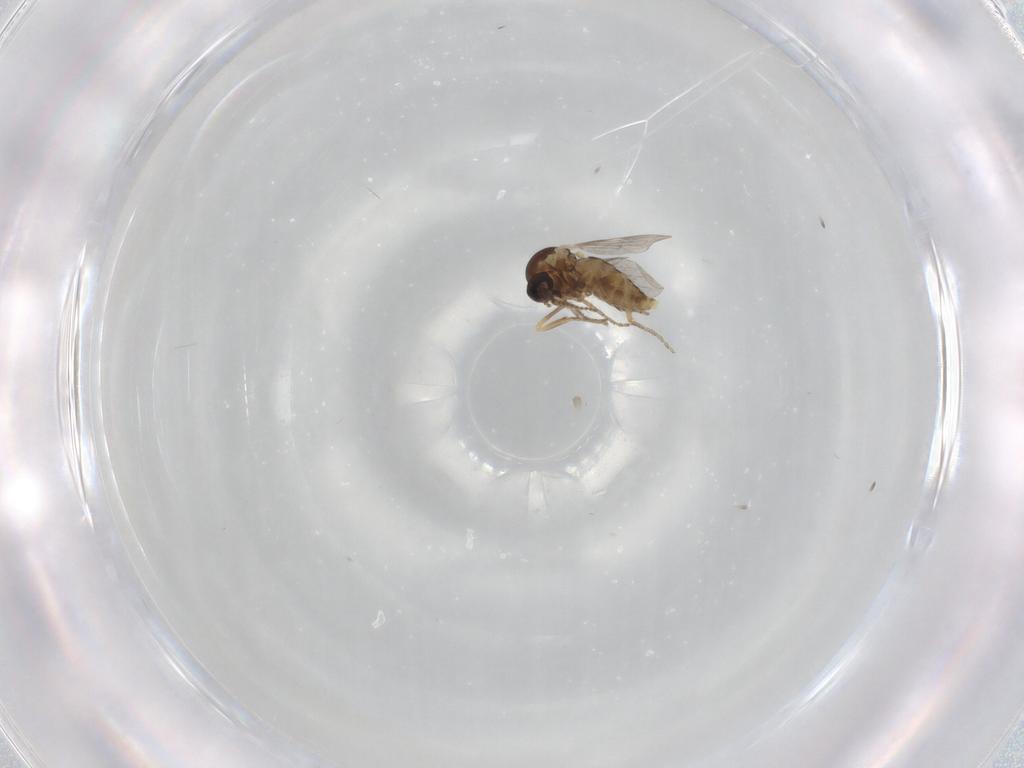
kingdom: Animalia
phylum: Arthropoda
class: Insecta
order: Diptera
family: Ceratopogonidae
